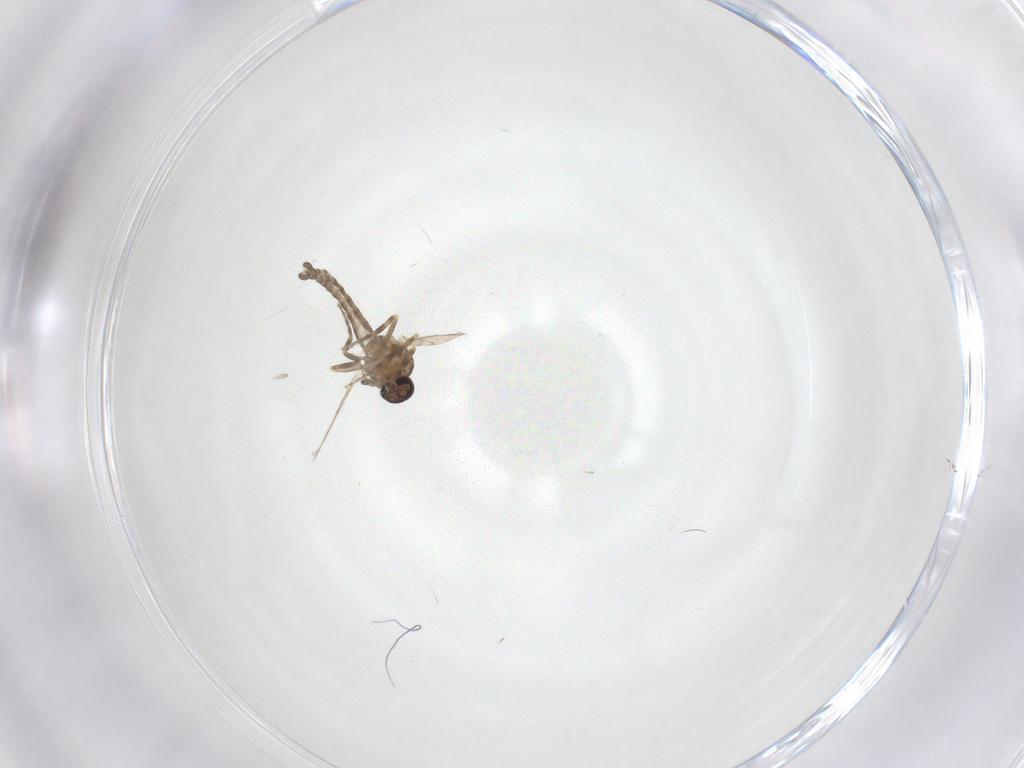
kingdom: Animalia
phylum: Arthropoda
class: Insecta
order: Diptera
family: Ceratopogonidae
